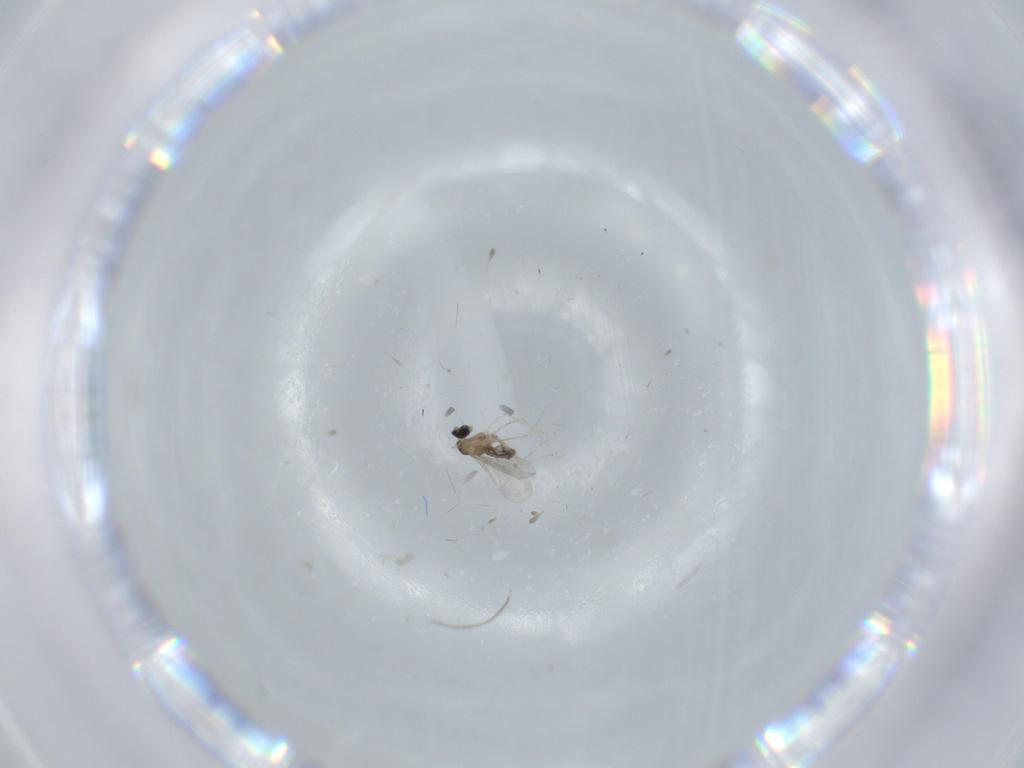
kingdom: Animalia
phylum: Arthropoda
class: Insecta
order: Diptera
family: Cecidomyiidae
